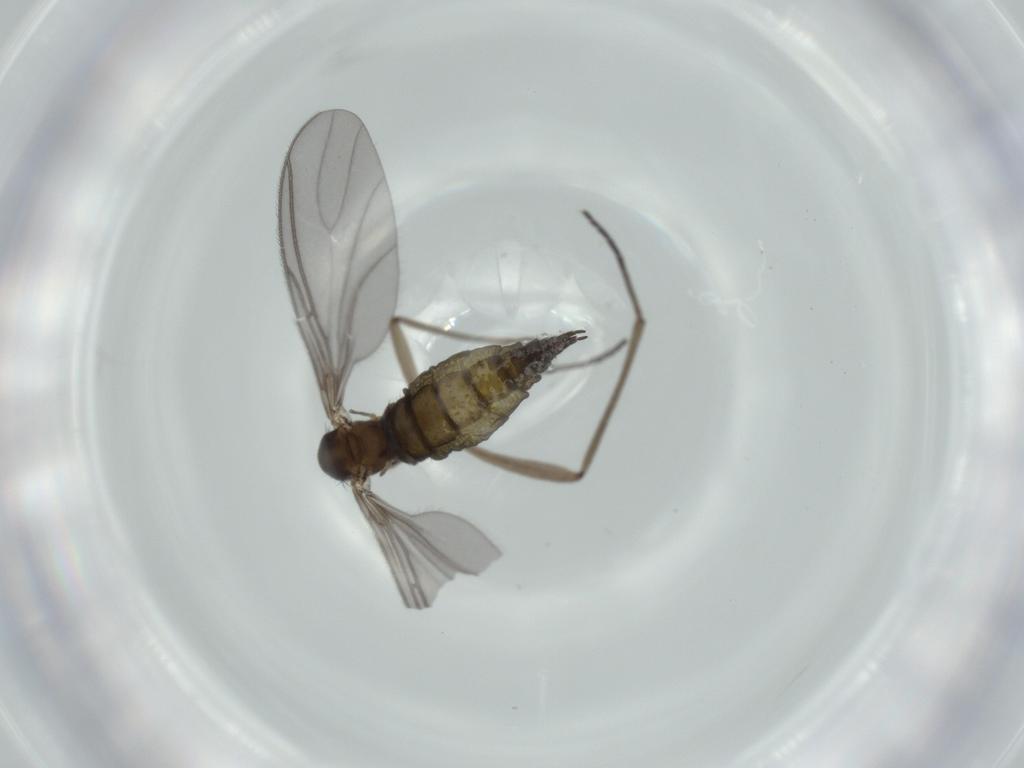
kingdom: Animalia
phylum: Arthropoda
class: Insecta
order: Diptera
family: Sciaridae
